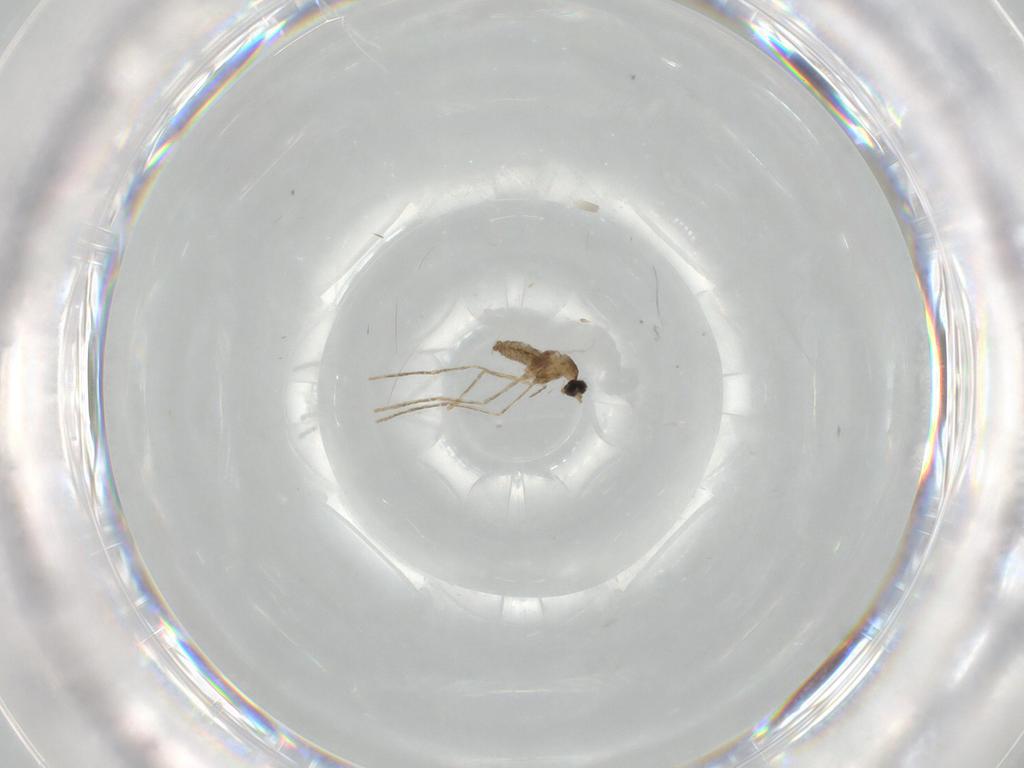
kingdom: Animalia
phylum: Arthropoda
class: Insecta
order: Diptera
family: Cecidomyiidae
